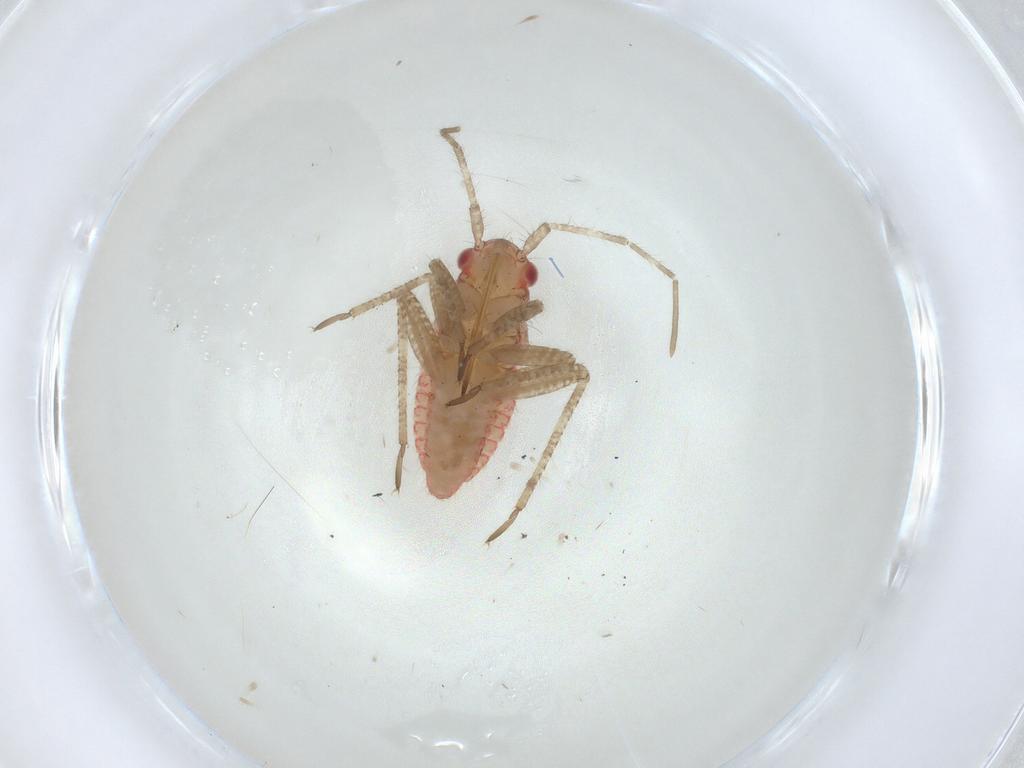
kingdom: Animalia
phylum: Arthropoda
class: Insecta
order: Hemiptera
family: Miridae
